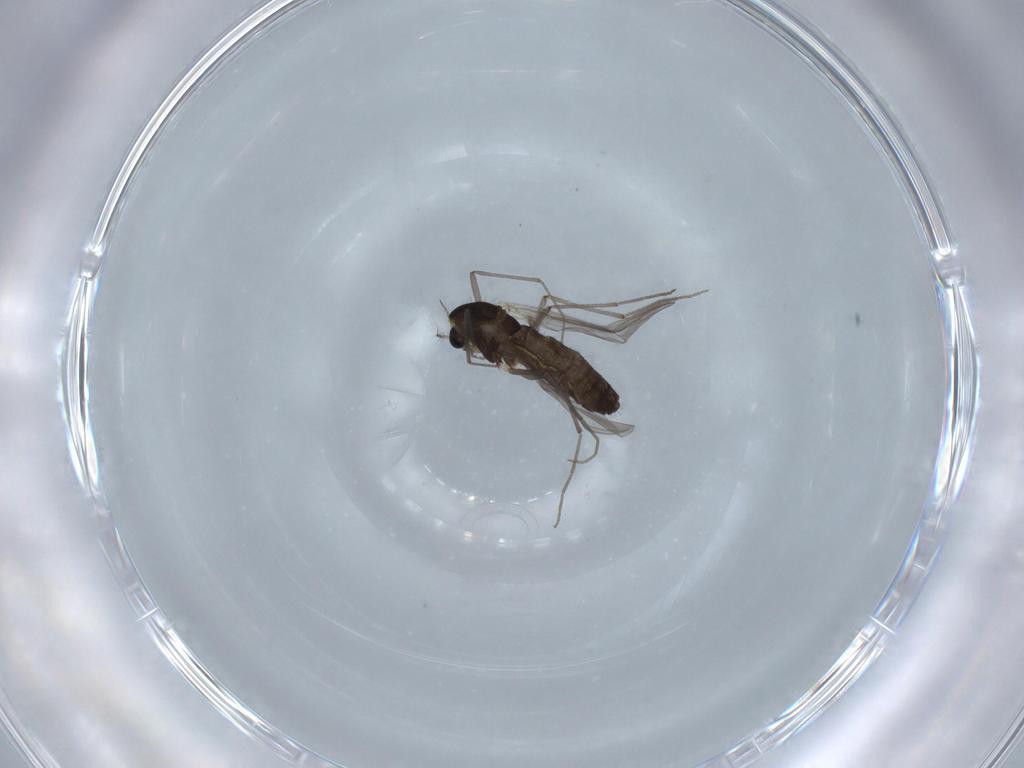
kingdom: Animalia
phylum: Arthropoda
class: Insecta
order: Diptera
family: Chironomidae
